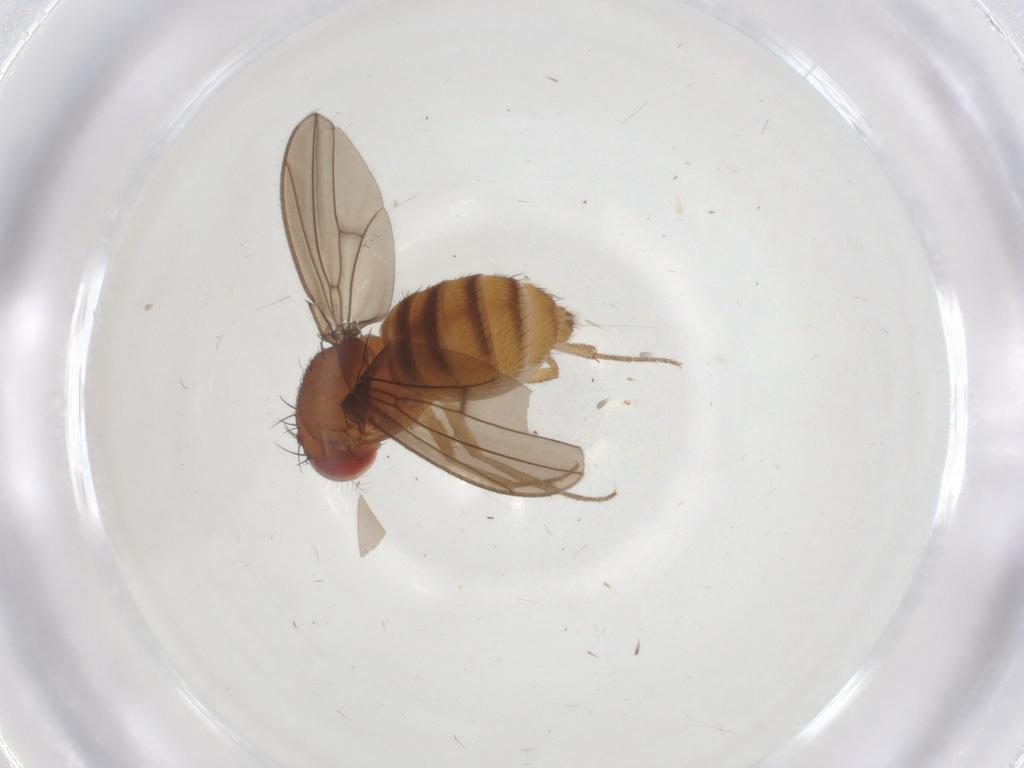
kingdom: Animalia
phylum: Arthropoda
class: Insecta
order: Diptera
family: Drosophilidae
